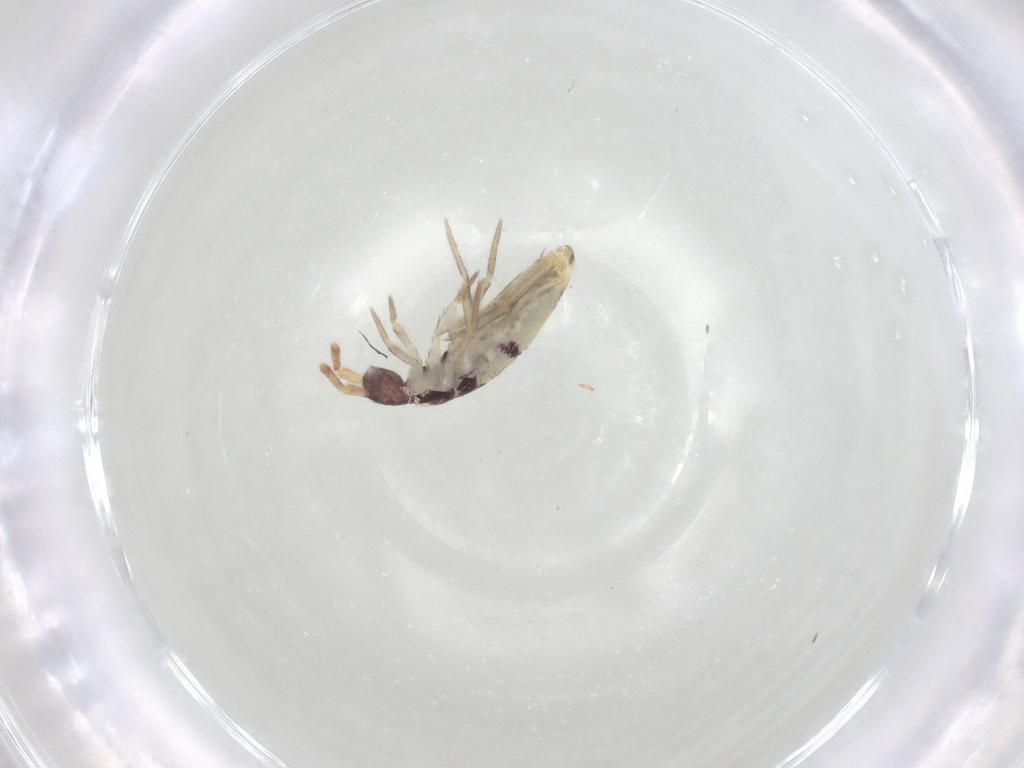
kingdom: Animalia
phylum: Arthropoda
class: Collembola
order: Entomobryomorpha
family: Entomobryidae
